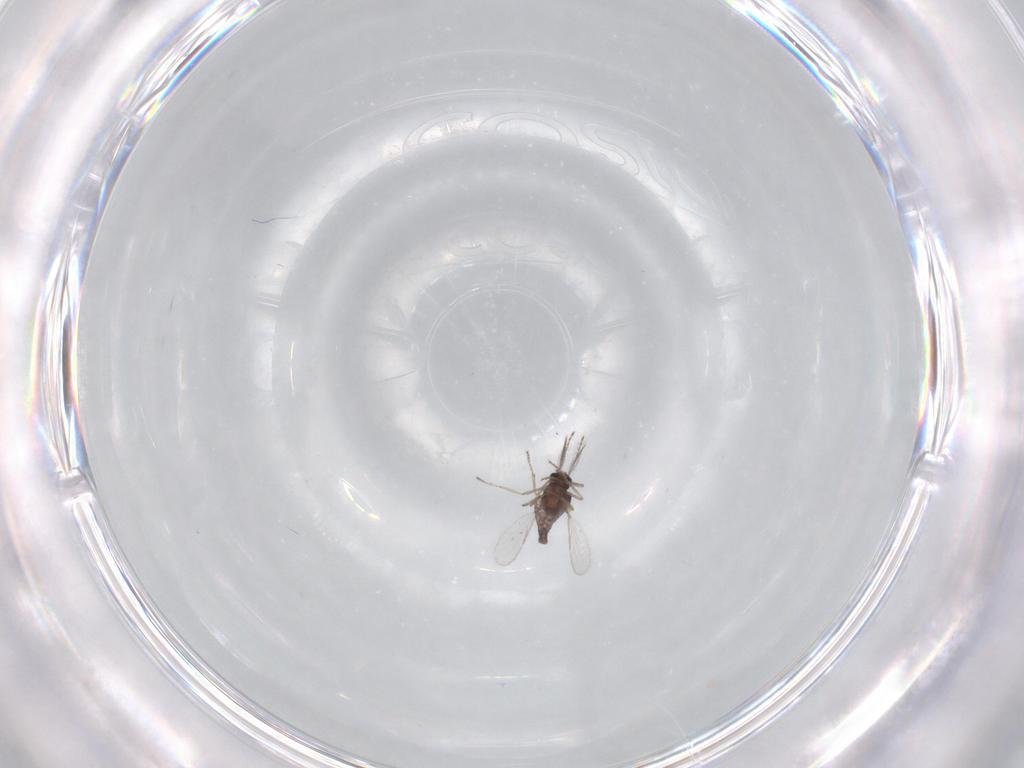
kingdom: Animalia
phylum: Arthropoda
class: Insecta
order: Diptera
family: Ceratopogonidae
